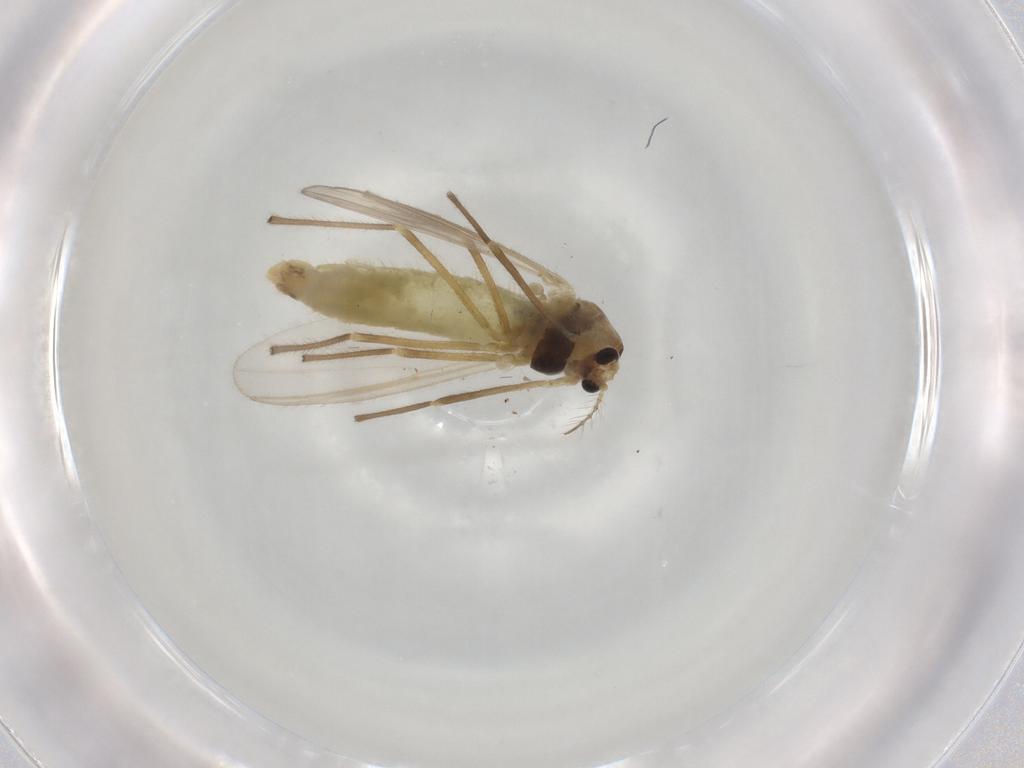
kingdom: Animalia
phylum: Arthropoda
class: Insecta
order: Diptera
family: Chironomidae
